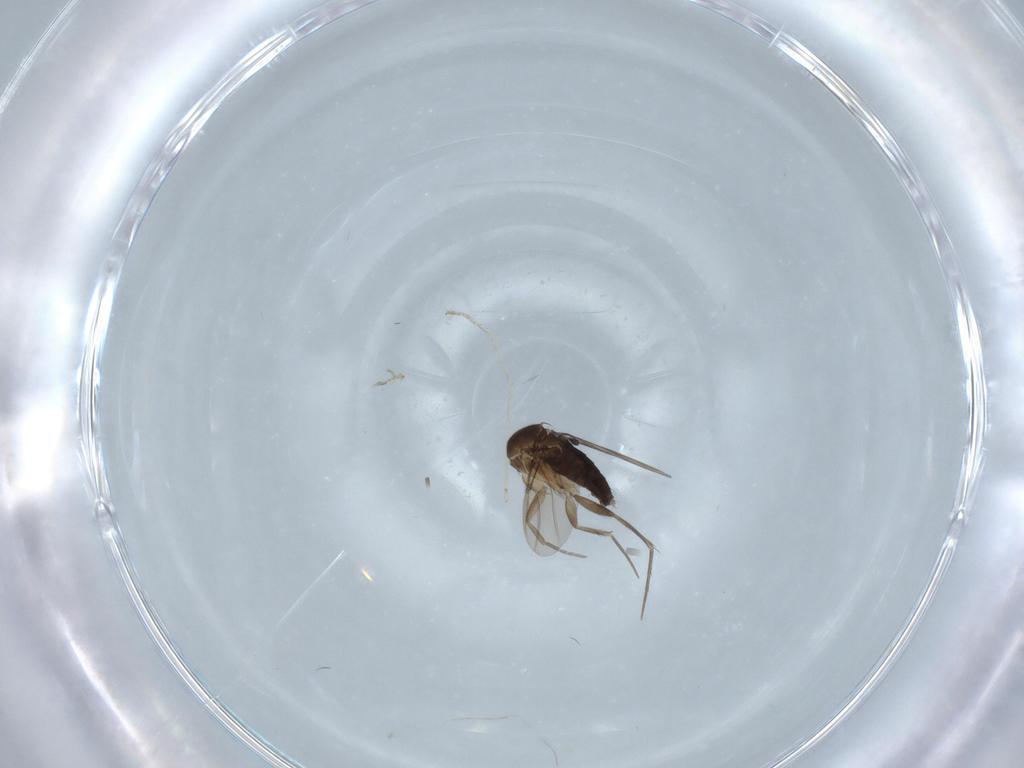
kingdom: Animalia
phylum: Arthropoda
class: Insecta
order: Diptera
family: Phoridae
